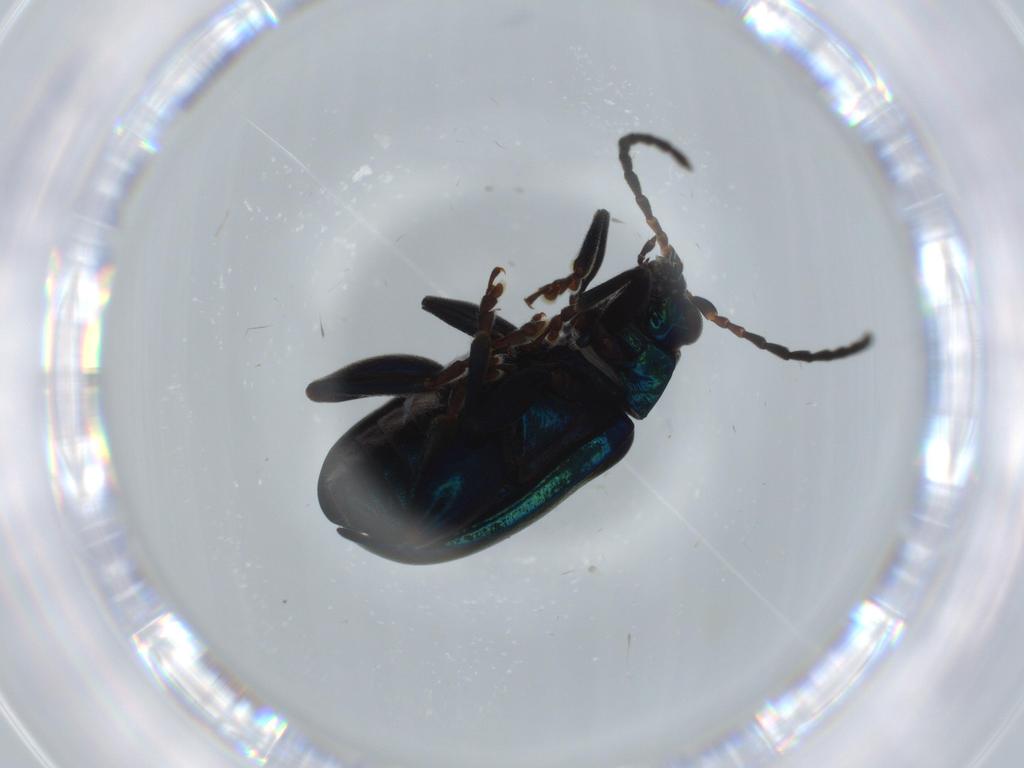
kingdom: Animalia
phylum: Arthropoda
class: Insecta
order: Coleoptera
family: Chrysomelidae
